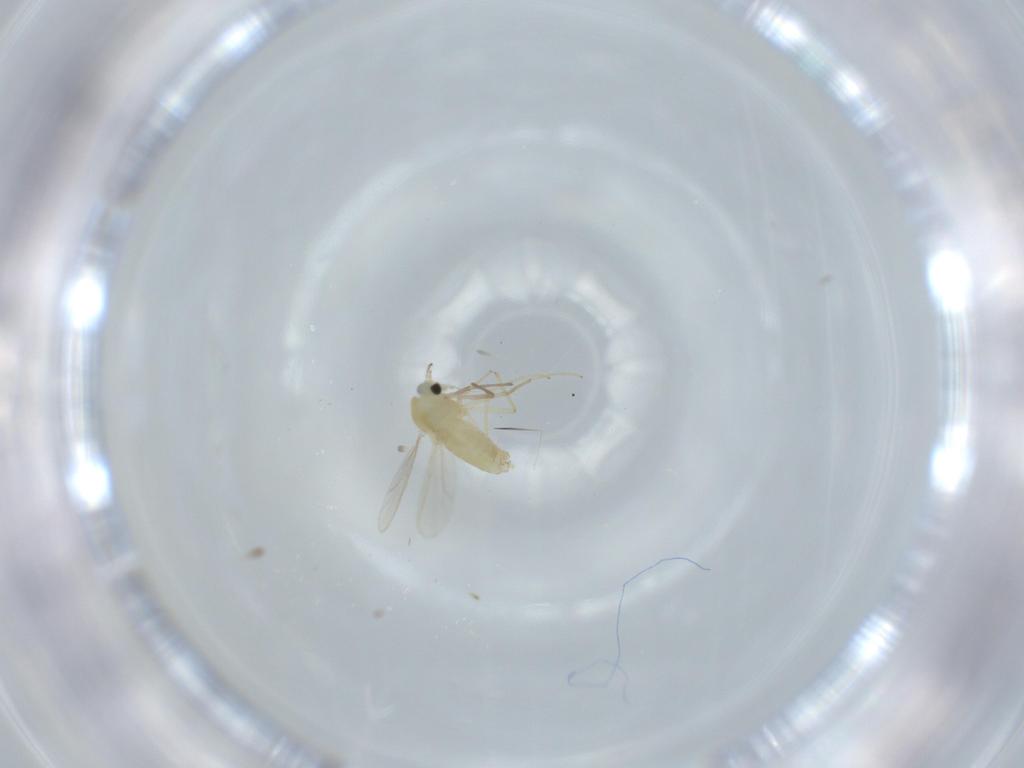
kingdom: Animalia
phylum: Arthropoda
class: Insecta
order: Diptera
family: Chironomidae
